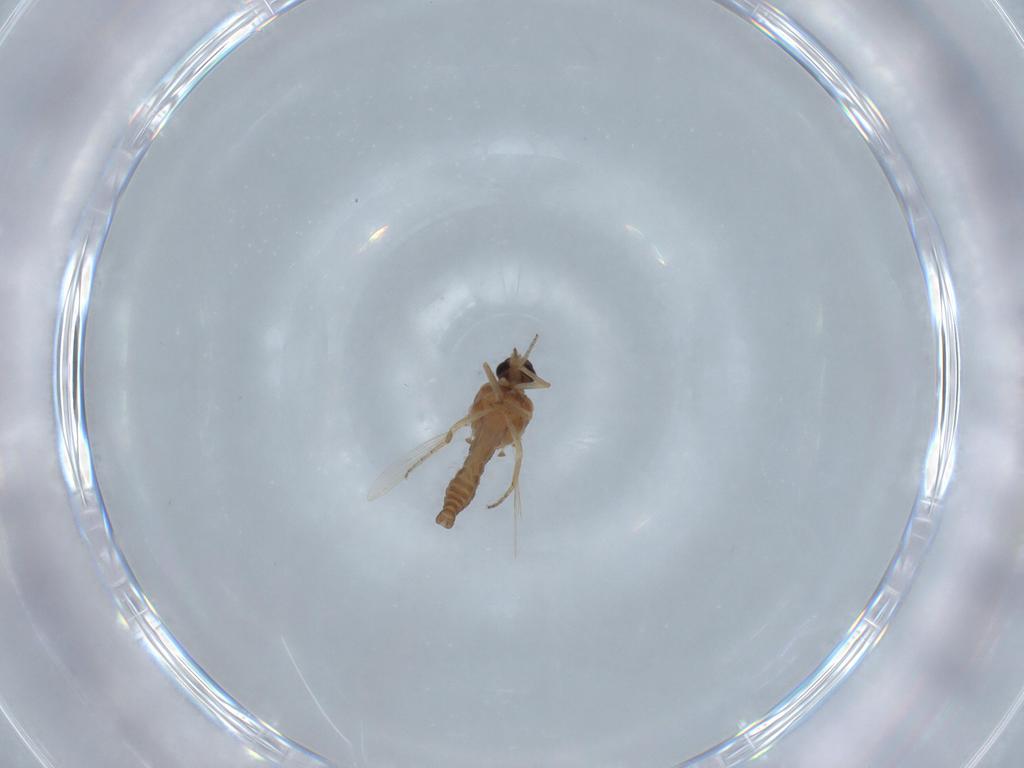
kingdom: Animalia
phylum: Arthropoda
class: Insecta
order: Diptera
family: Ceratopogonidae
